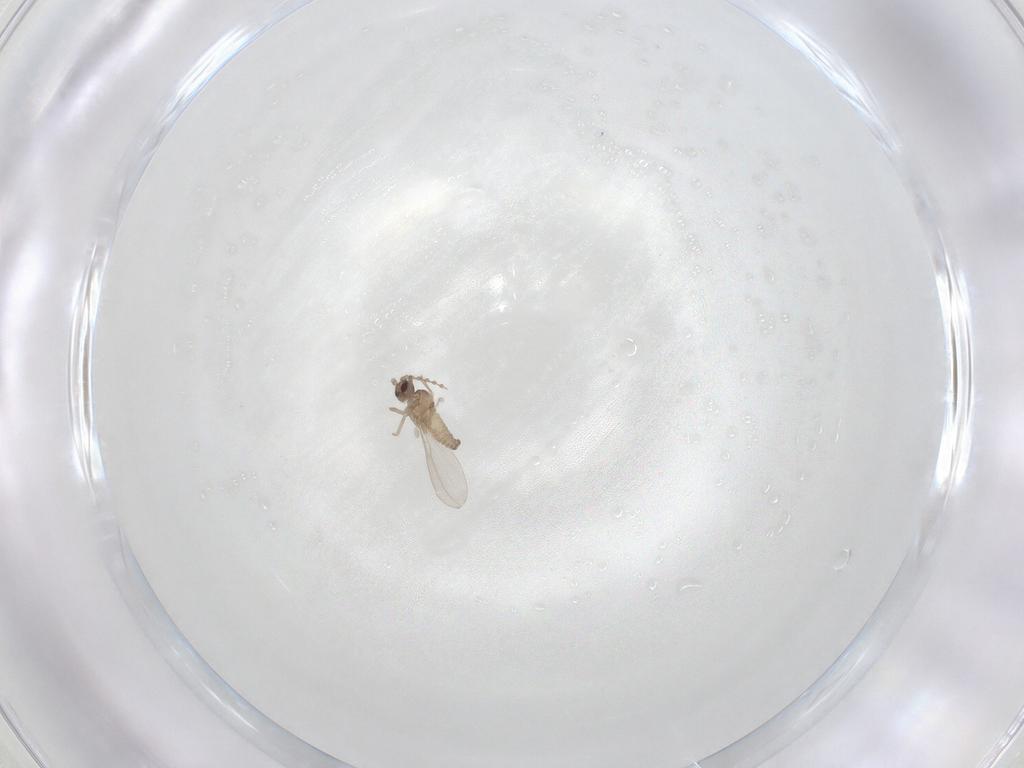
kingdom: Animalia
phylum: Arthropoda
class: Insecta
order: Diptera
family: Cecidomyiidae
